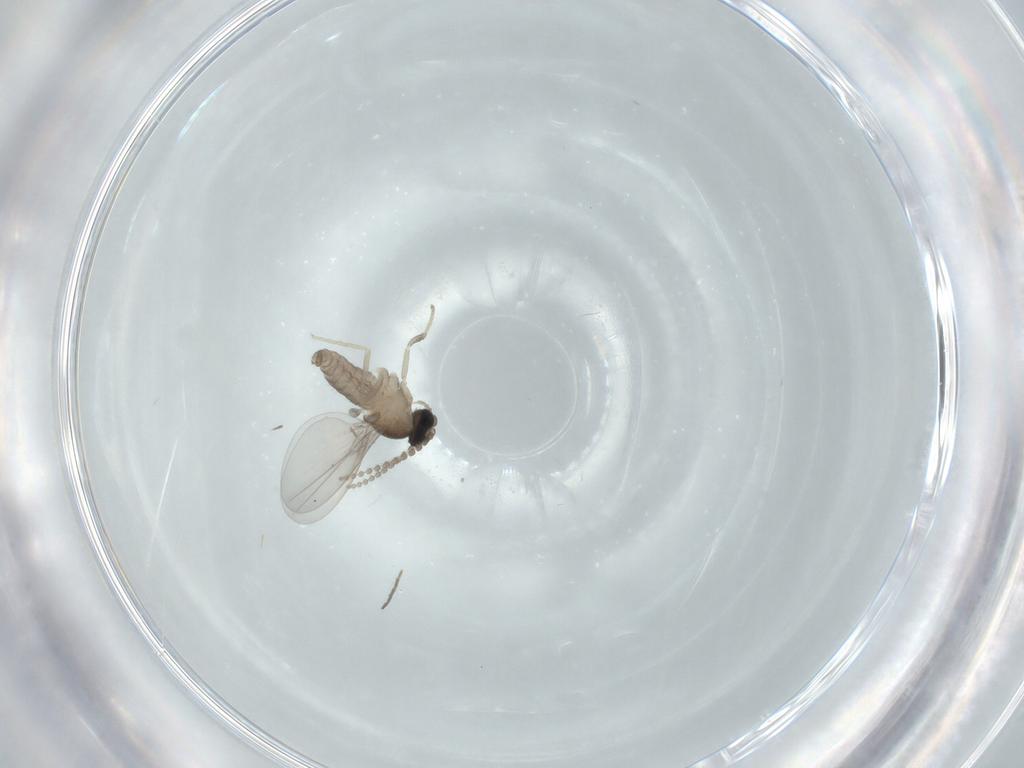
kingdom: Animalia
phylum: Arthropoda
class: Insecta
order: Diptera
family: Cecidomyiidae
